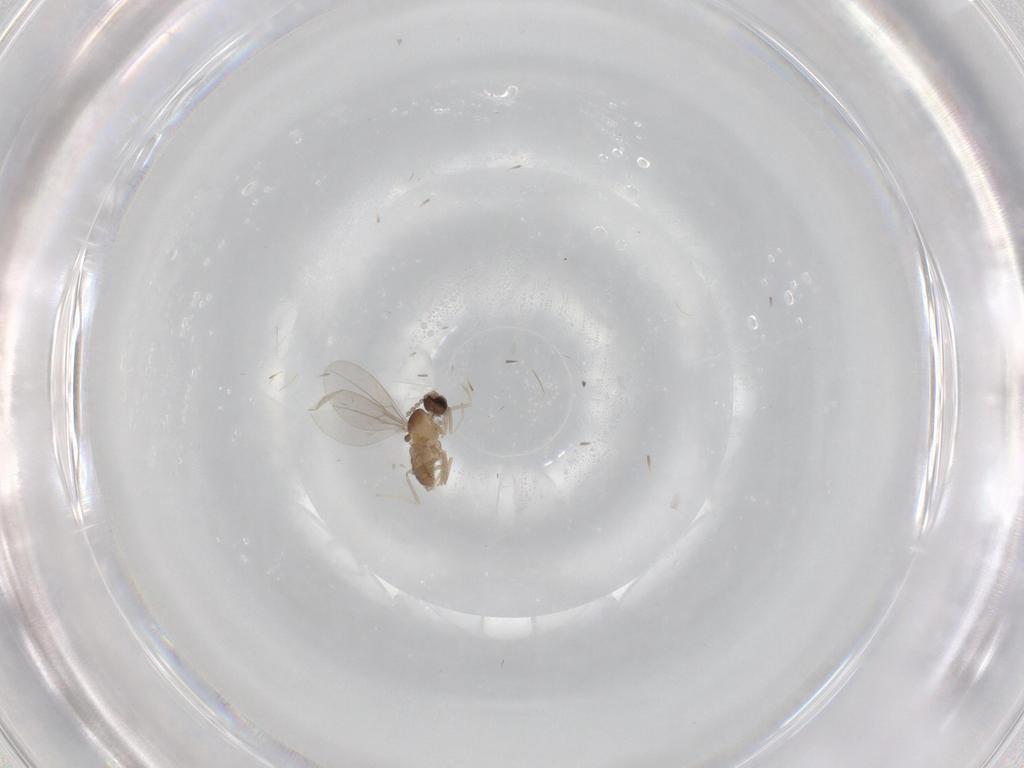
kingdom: Animalia
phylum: Arthropoda
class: Insecta
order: Diptera
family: Cecidomyiidae
